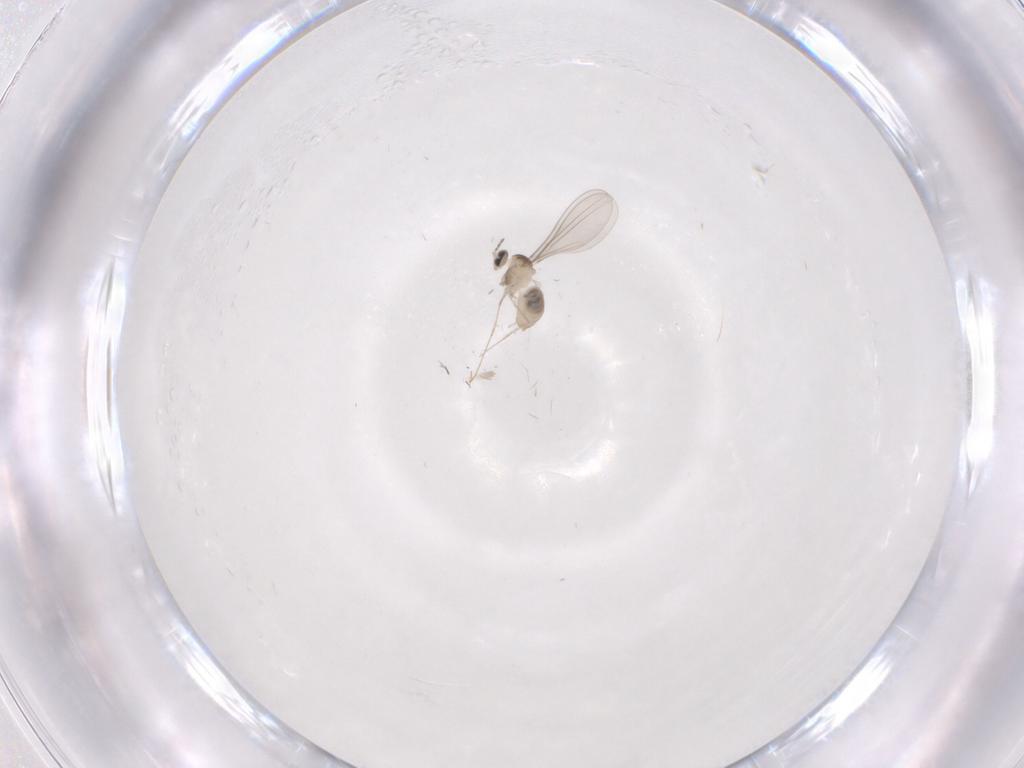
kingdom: Animalia
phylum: Arthropoda
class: Insecta
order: Diptera
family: Cecidomyiidae
